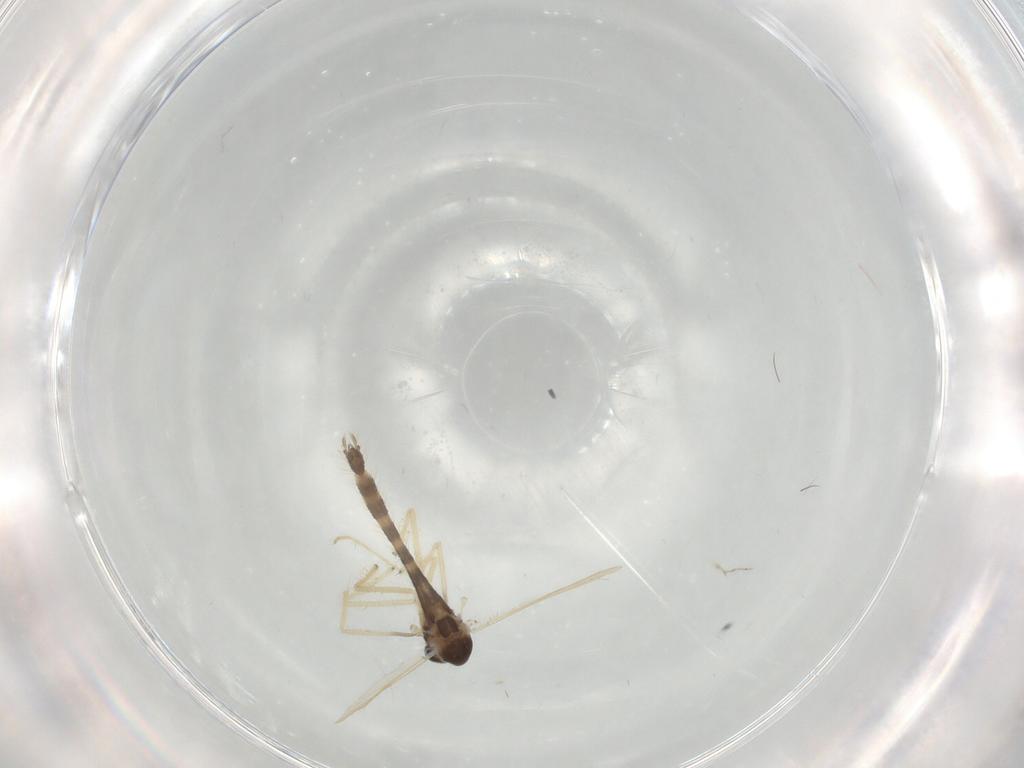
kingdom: Animalia
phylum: Arthropoda
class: Insecta
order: Diptera
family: Chironomidae
